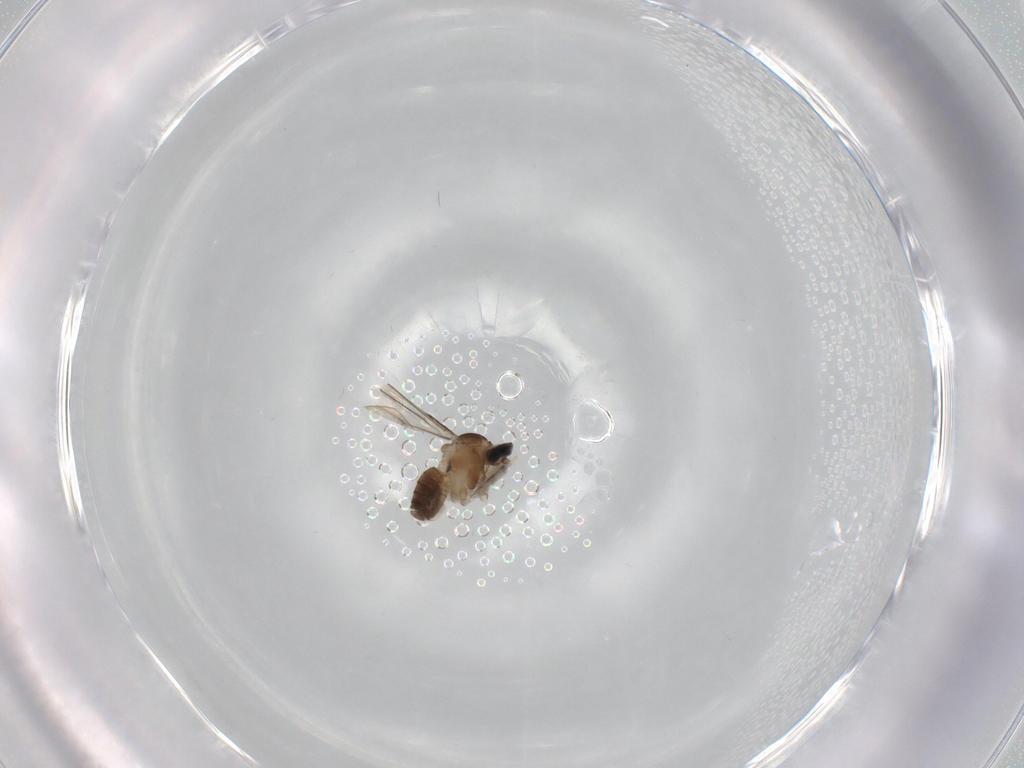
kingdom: Animalia
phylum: Arthropoda
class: Insecta
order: Diptera
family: Cecidomyiidae
